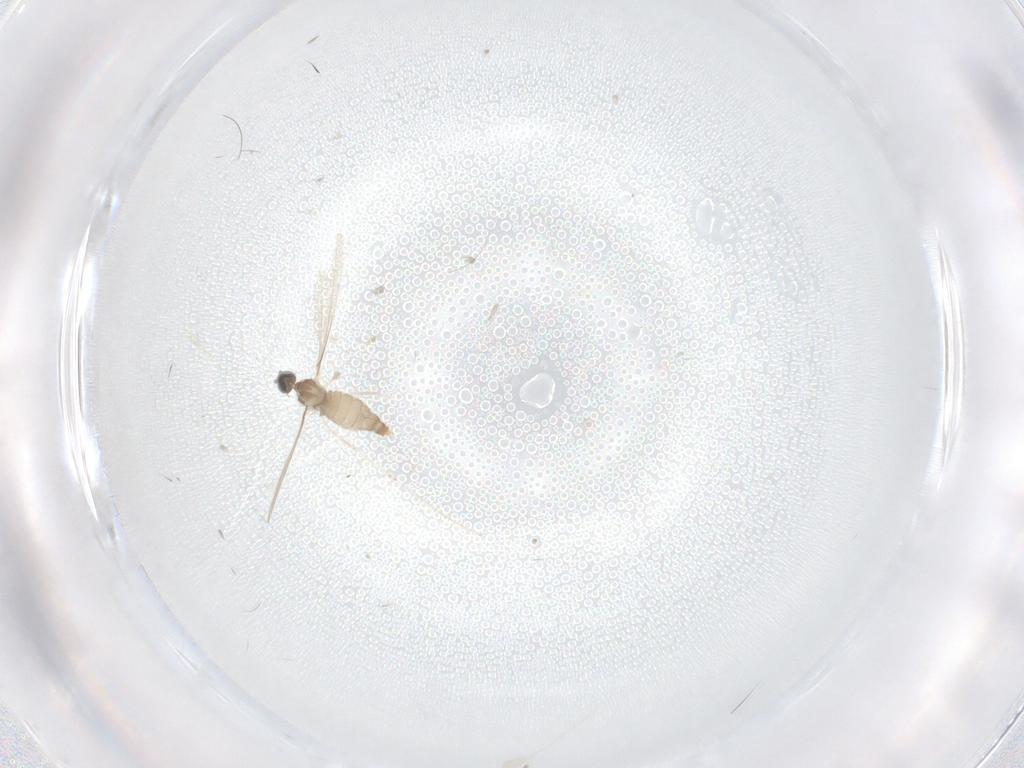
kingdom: Animalia
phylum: Arthropoda
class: Insecta
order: Diptera
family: Cecidomyiidae
